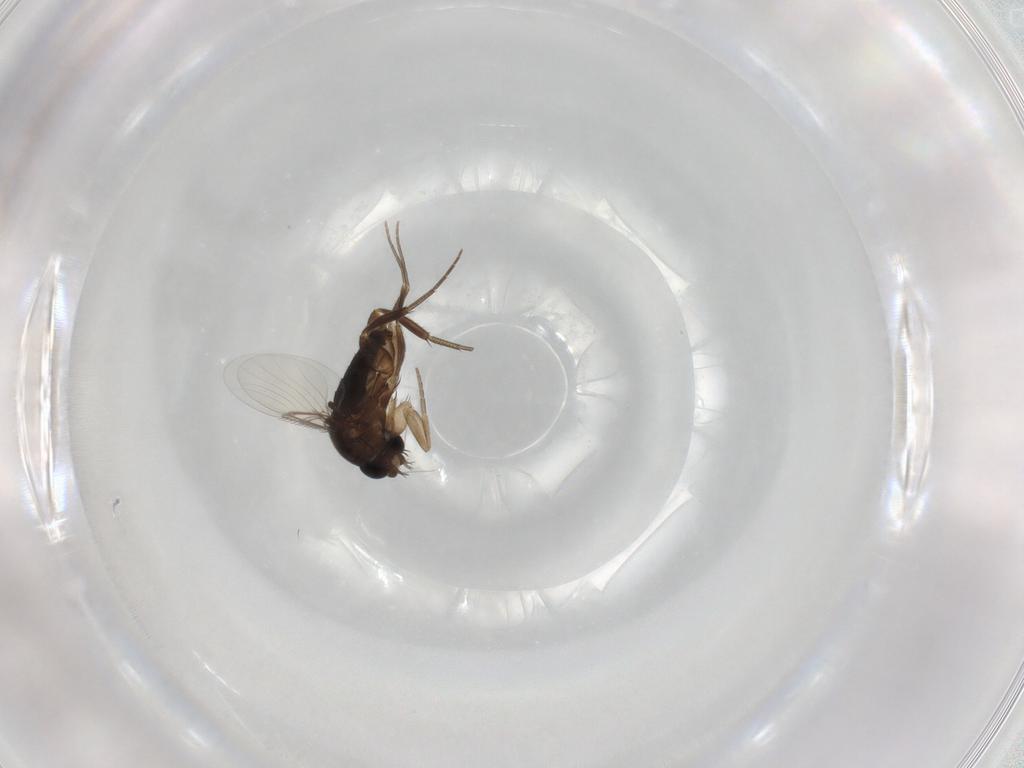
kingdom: Animalia
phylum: Arthropoda
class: Insecta
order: Diptera
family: Phoridae
